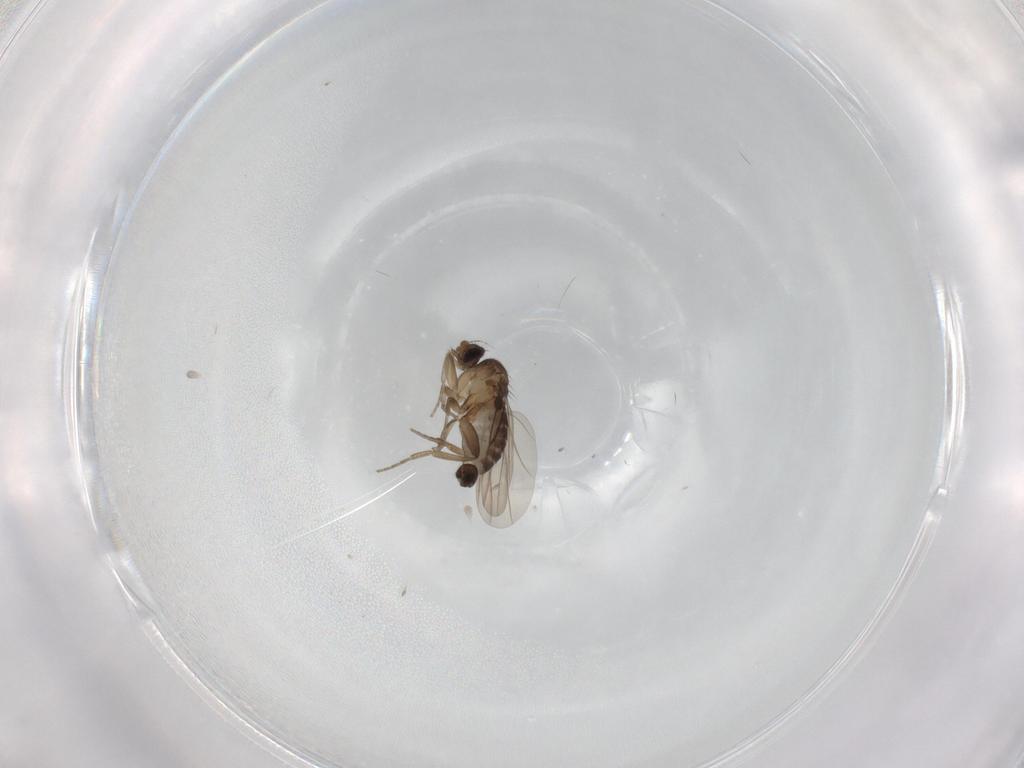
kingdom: Animalia
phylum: Arthropoda
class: Insecta
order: Diptera
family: Phoridae
